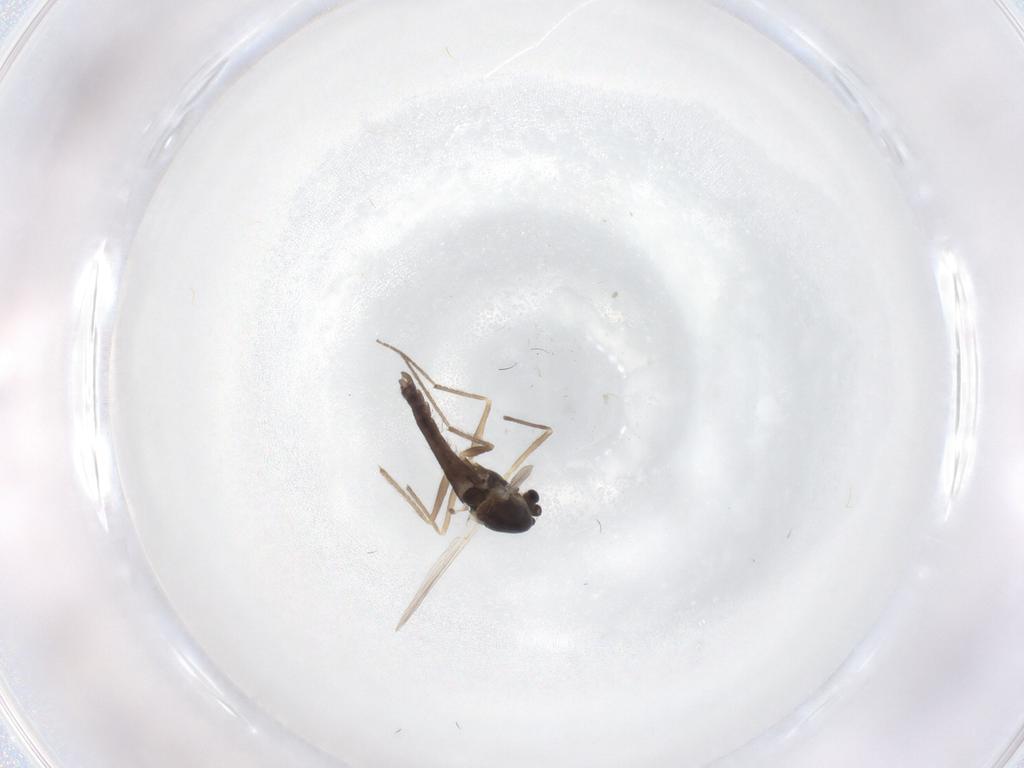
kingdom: Animalia
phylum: Arthropoda
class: Insecta
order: Diptera
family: Chironomidae
